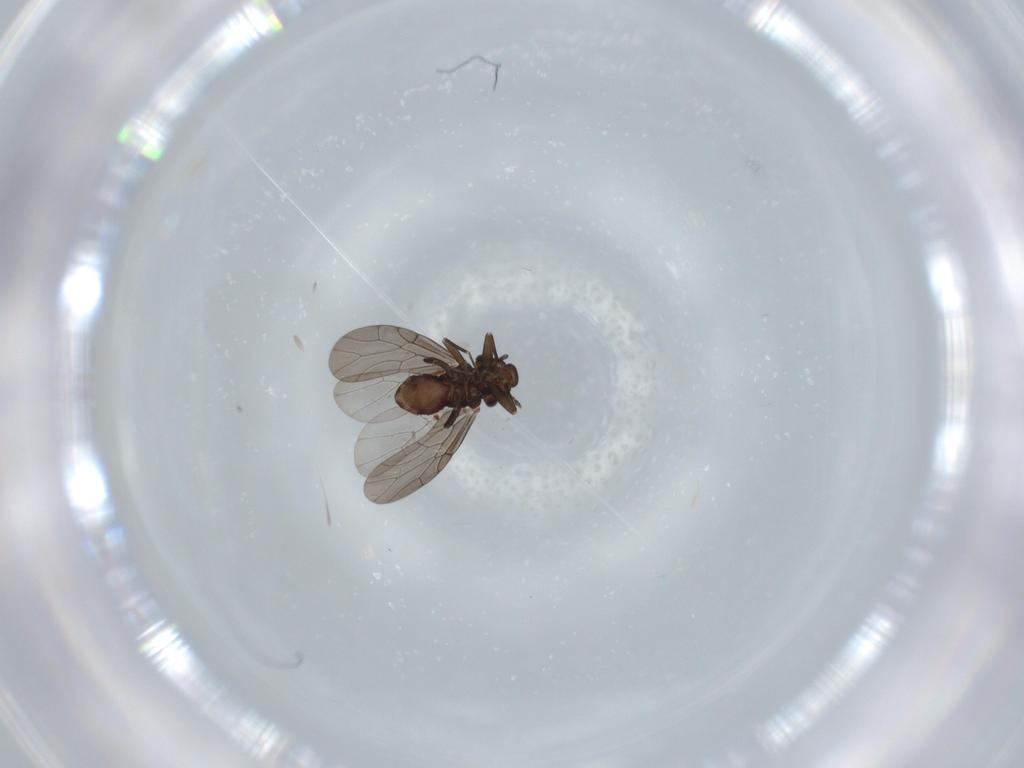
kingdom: Animalia
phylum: Arthropoda
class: Insecta
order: Psocodea
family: Lepidopsocidae
